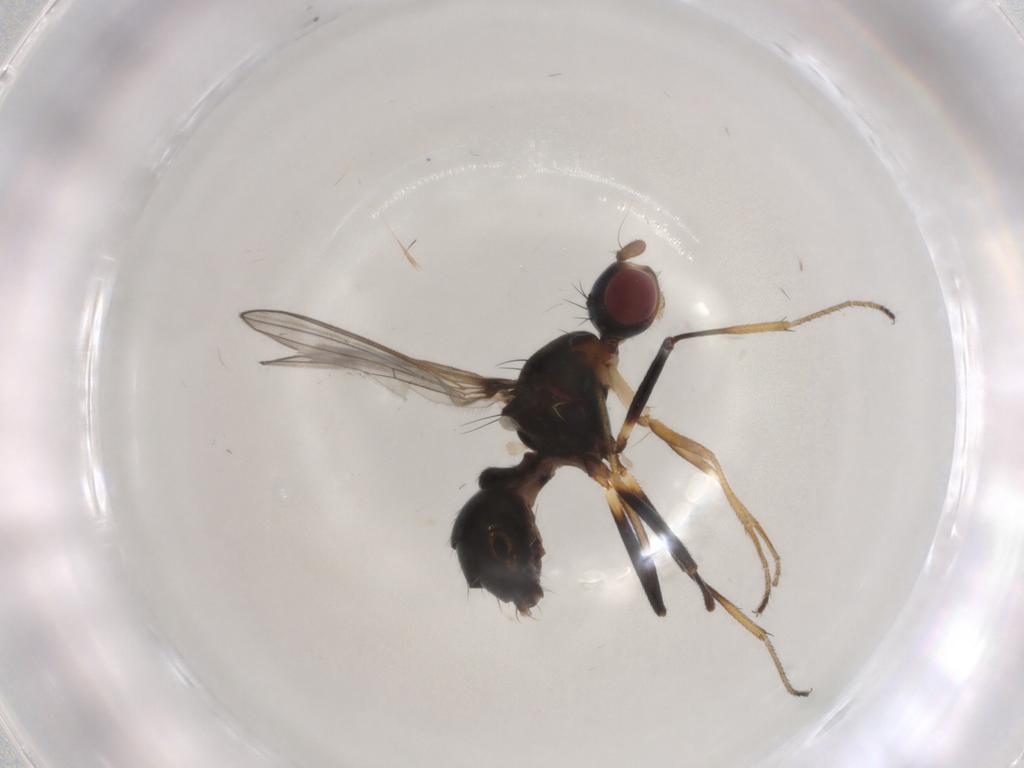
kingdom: Animalia
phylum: Arthropoda
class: Insecta
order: Diptera
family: Sepsidae
